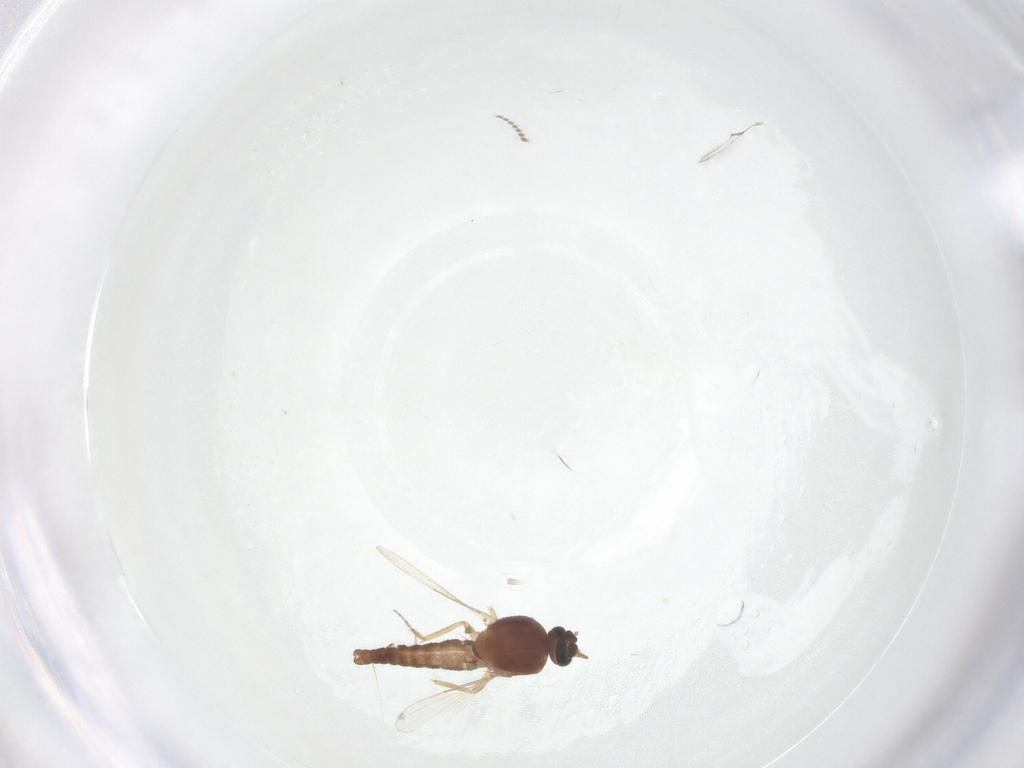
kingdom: Animalia
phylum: Arthropoda
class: Insecta
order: Diptera
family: Ceratopogonidae
